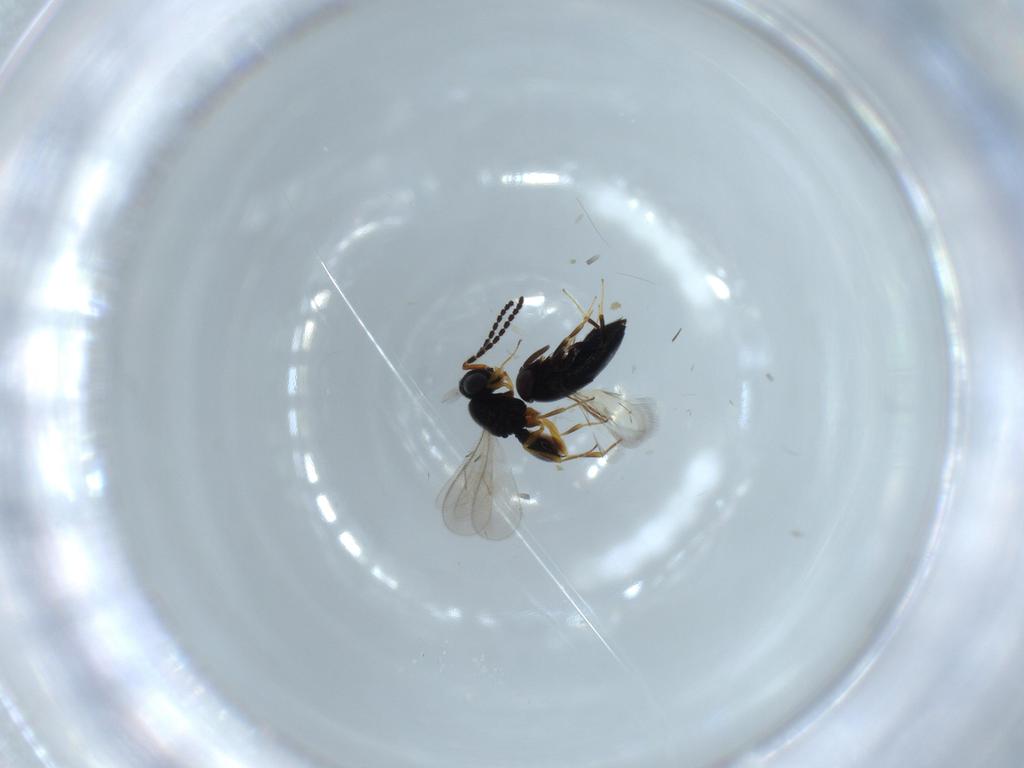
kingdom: Animalia
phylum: Arthropoda
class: Insecta
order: Hymenoptera
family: Scelionidae
